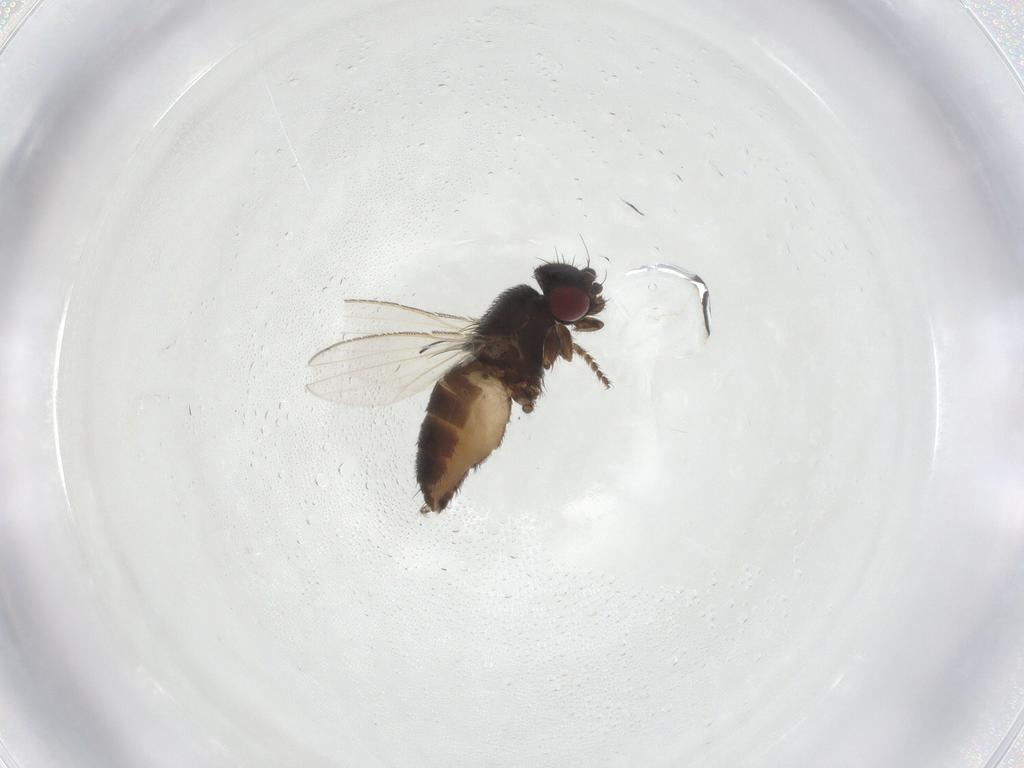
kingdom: Animalia
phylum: Arthropoda
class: Insecta
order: Diptera
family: Milichiidae
